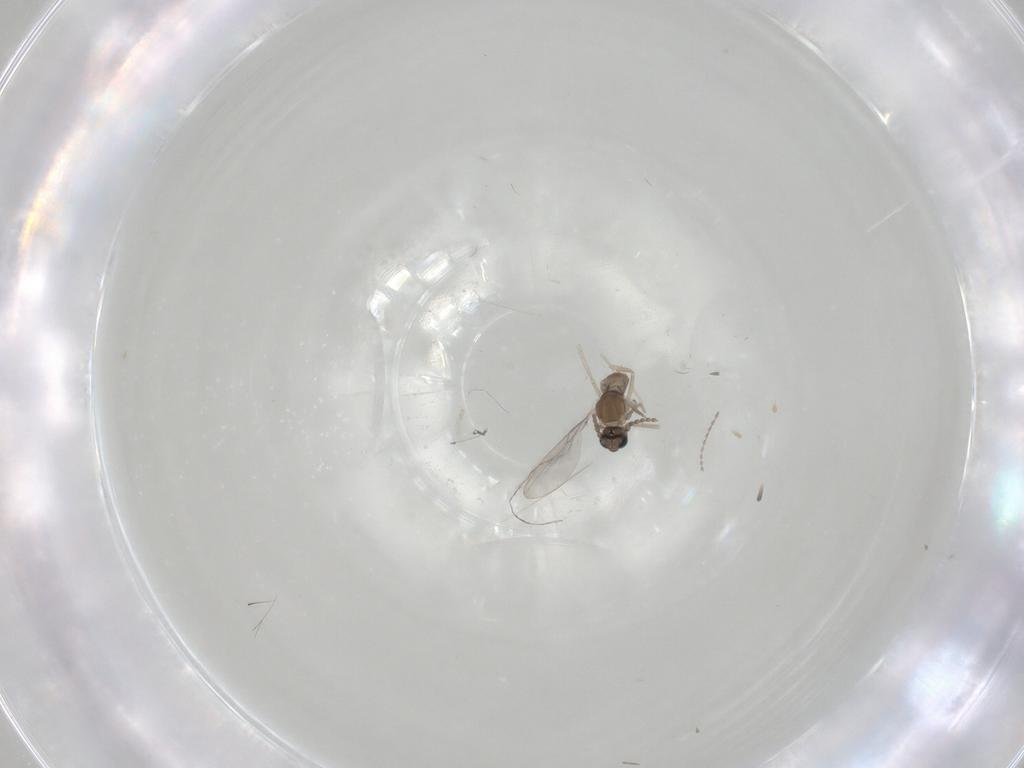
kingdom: Animalia
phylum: Arthropoda
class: Insecta
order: Diptera
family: Cecidomyiidae
